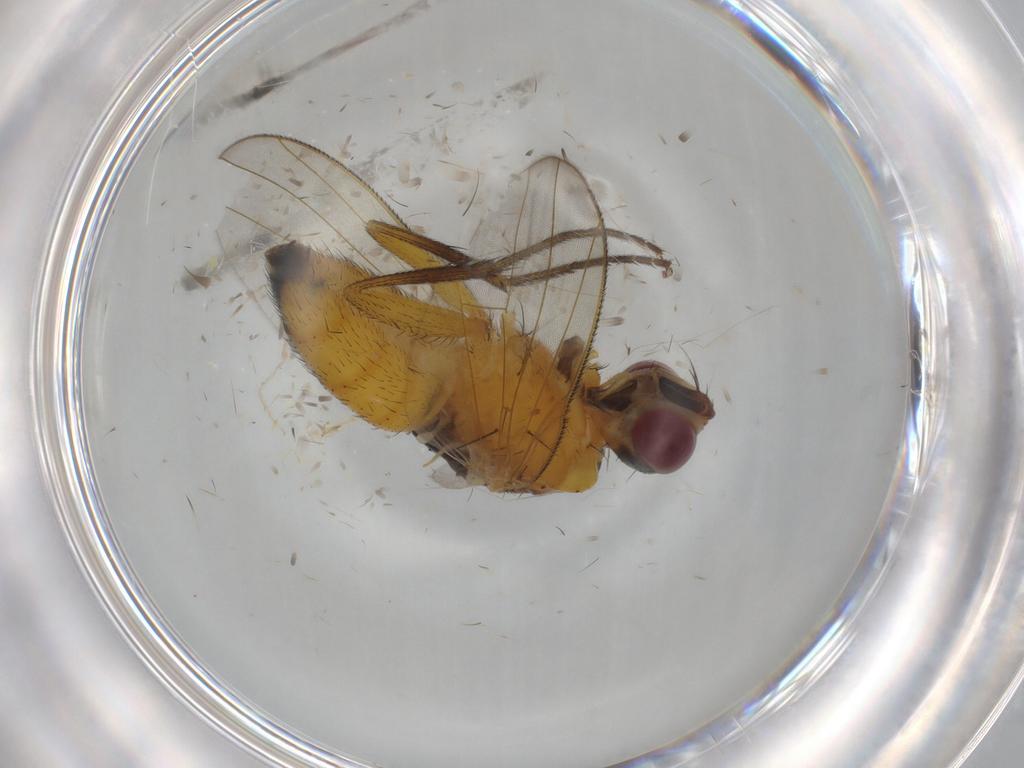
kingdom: Animalia
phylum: Arthropoda
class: Insecta
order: Diptera
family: Muscidae
